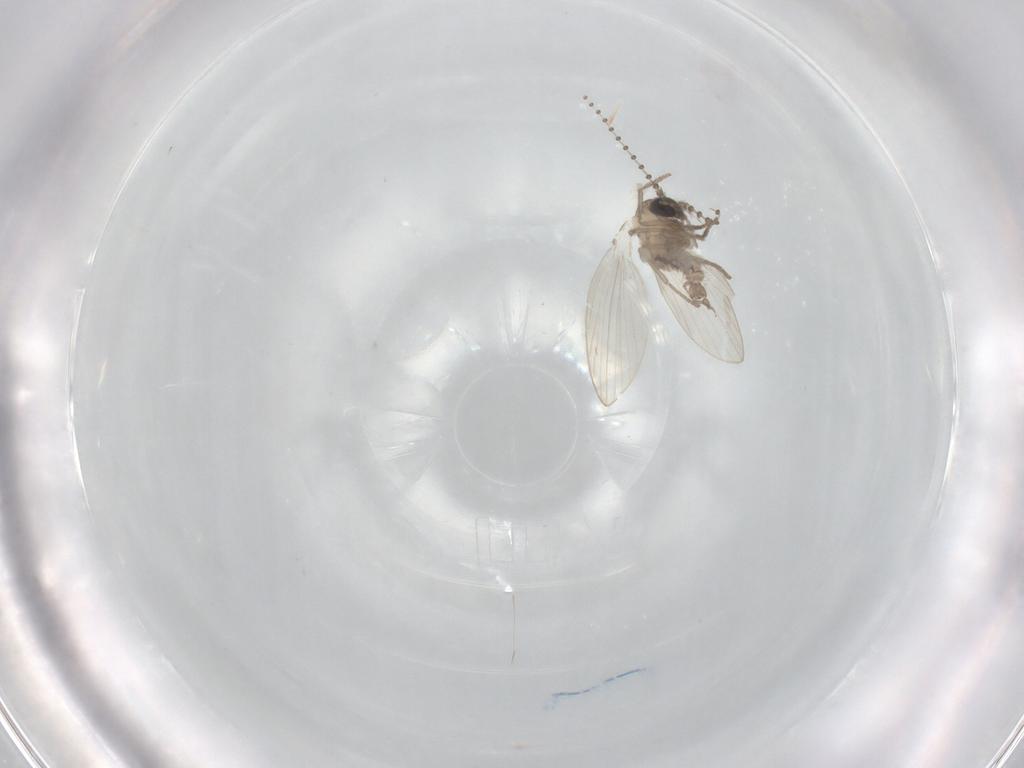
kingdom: Animalia
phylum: Arthropoda
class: Insecta
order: Diptera
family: Psychodidae
